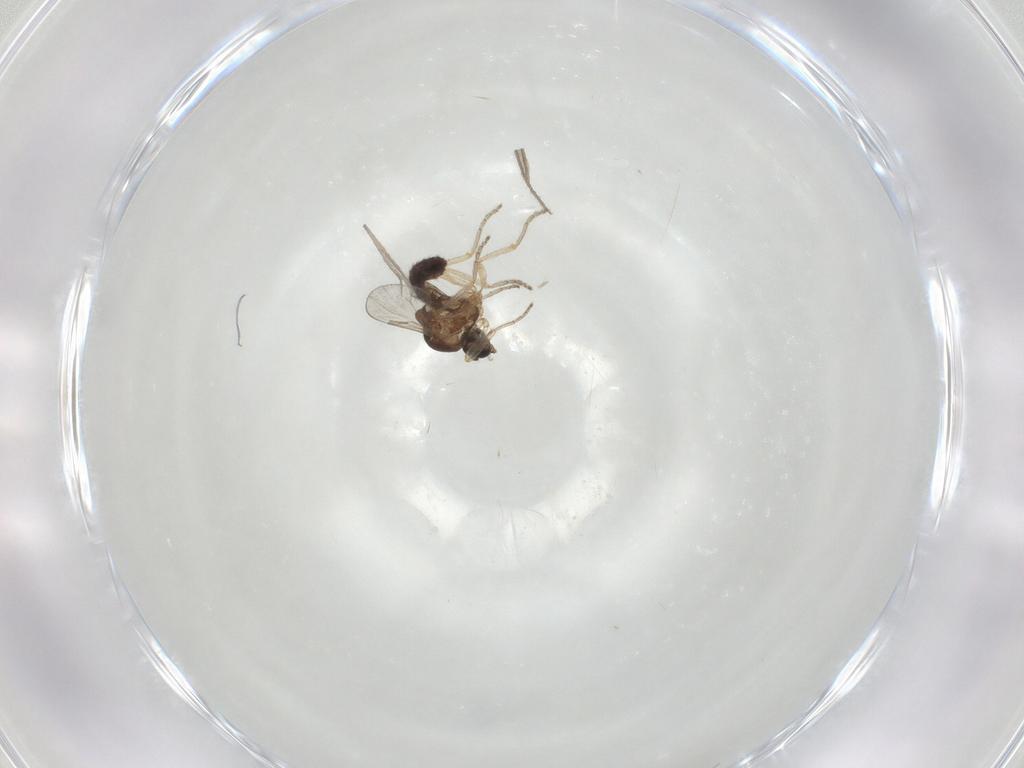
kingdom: Animalia
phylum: Arthropoda
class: Insecta
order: Diptera
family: Ceratopogonidae
